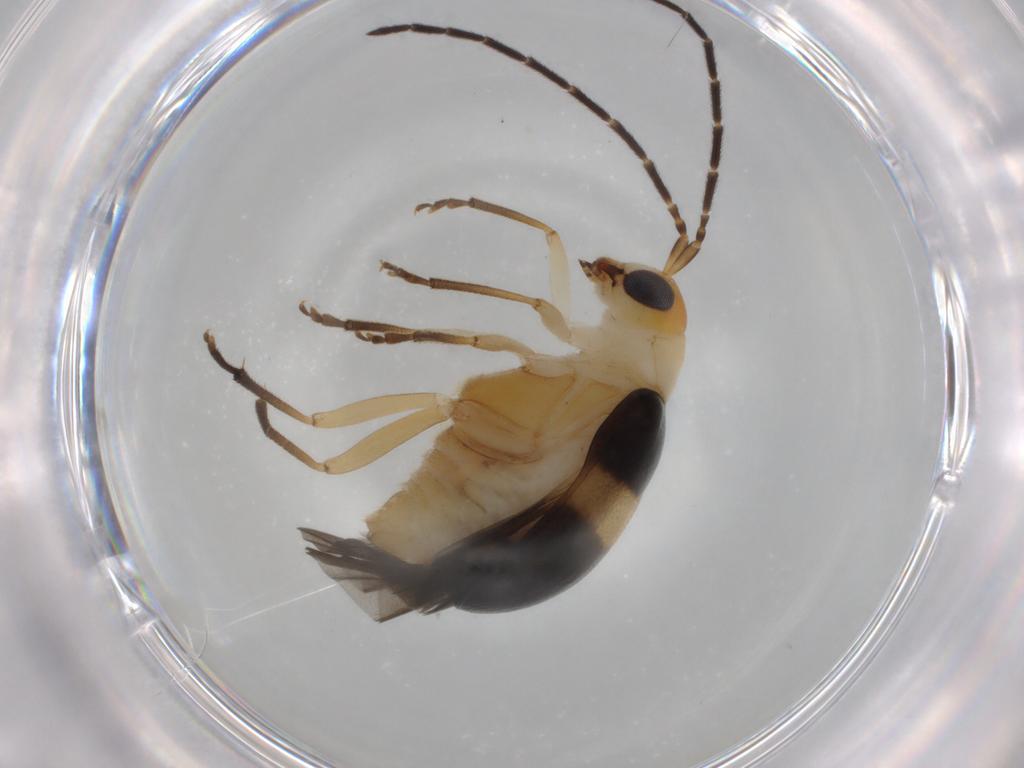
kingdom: Animalia
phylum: Arthropoda
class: Insecta
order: Coleoptera
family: Chrysomelidae
